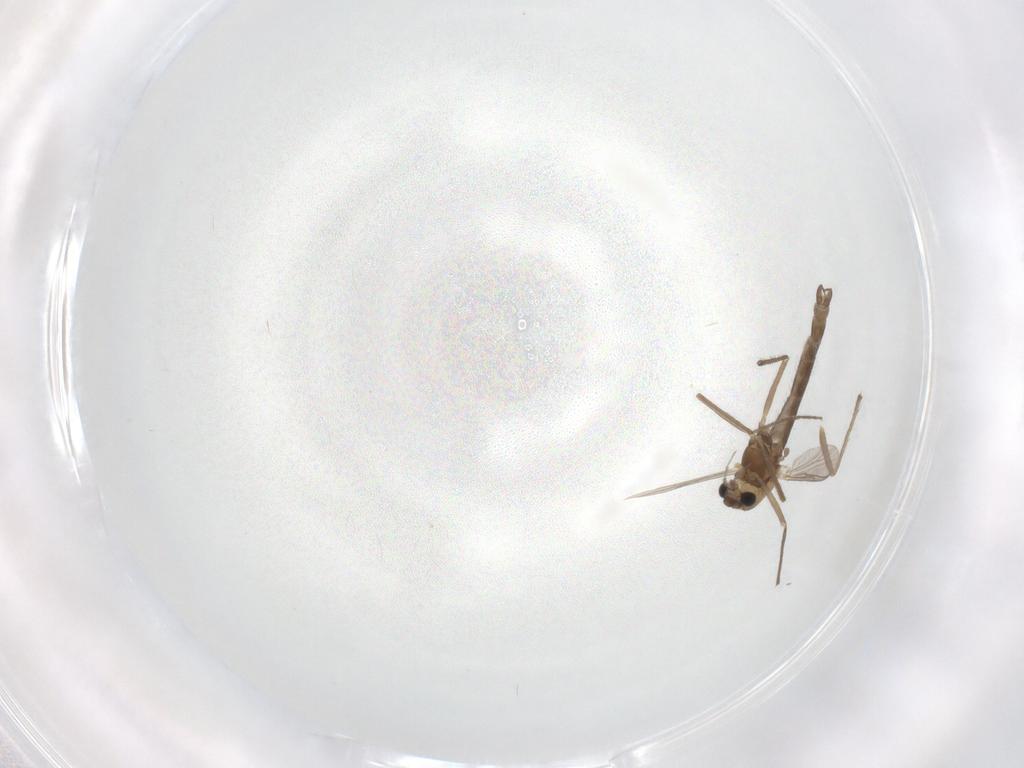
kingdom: Animalia
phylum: Arthropoda
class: Insecta
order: Diptera
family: Chironomidae
